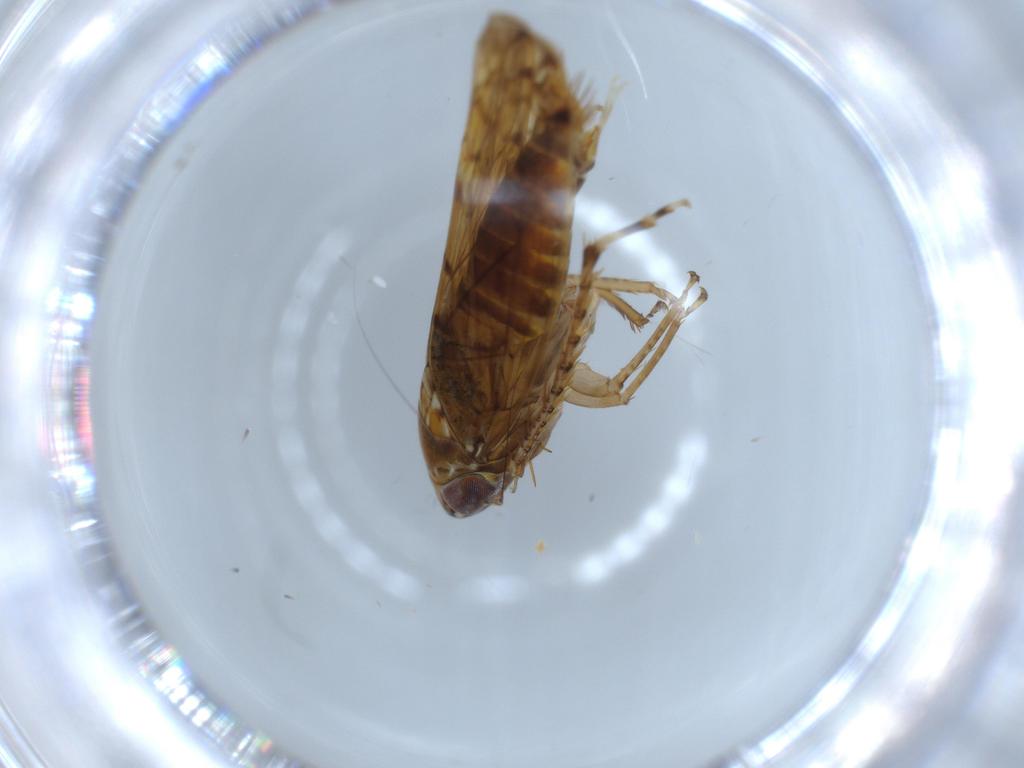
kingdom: Animalia
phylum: Arthropoda
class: Insecta
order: Hemiptera
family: Cicadellidae
